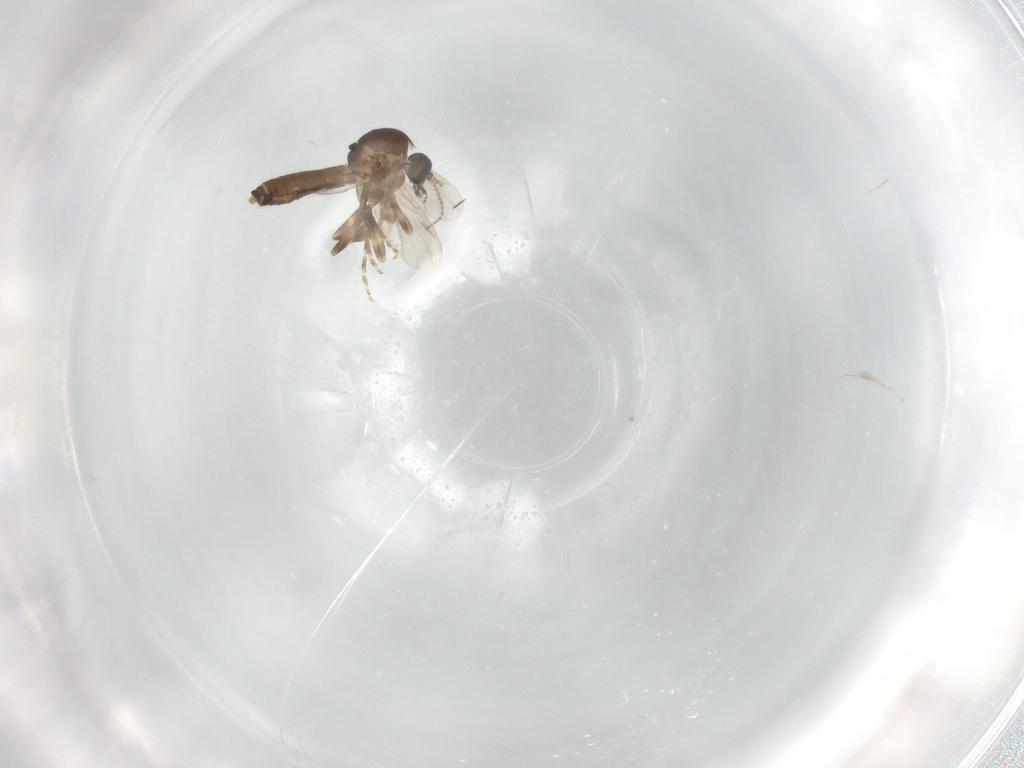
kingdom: Animalia
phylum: Arthropoda
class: Insecta
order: Diptera
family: Ceratopogonidae
